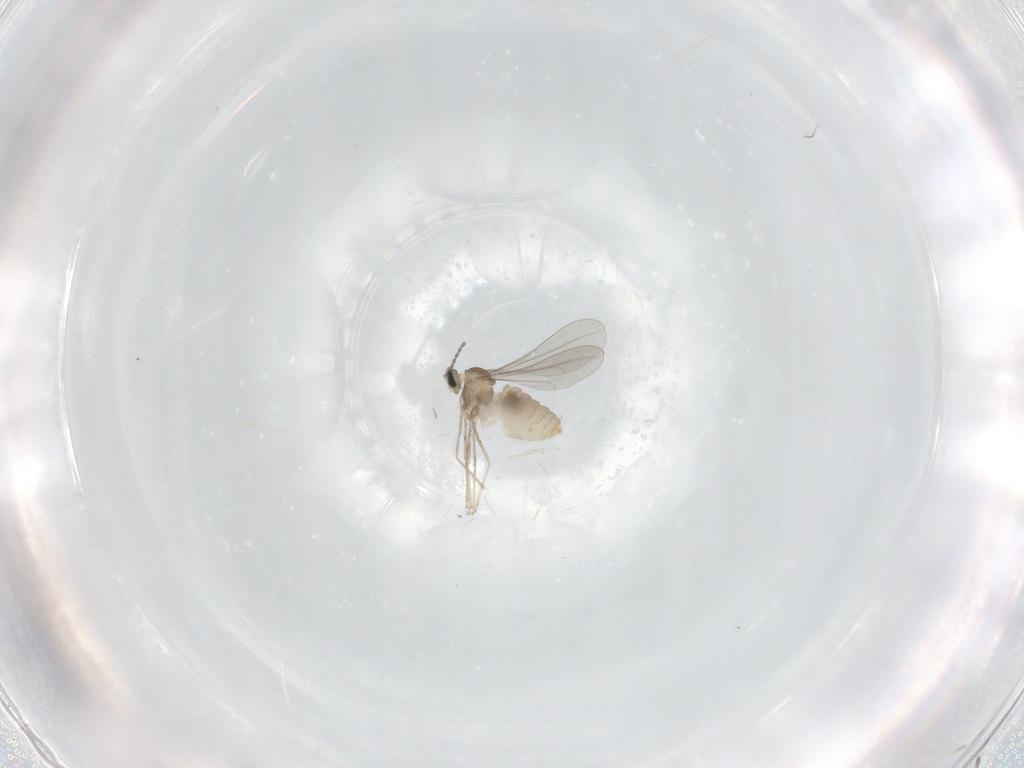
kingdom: Animalia
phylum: Arthropoda
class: Insecta
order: Diptera
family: Cecidomyiidae
